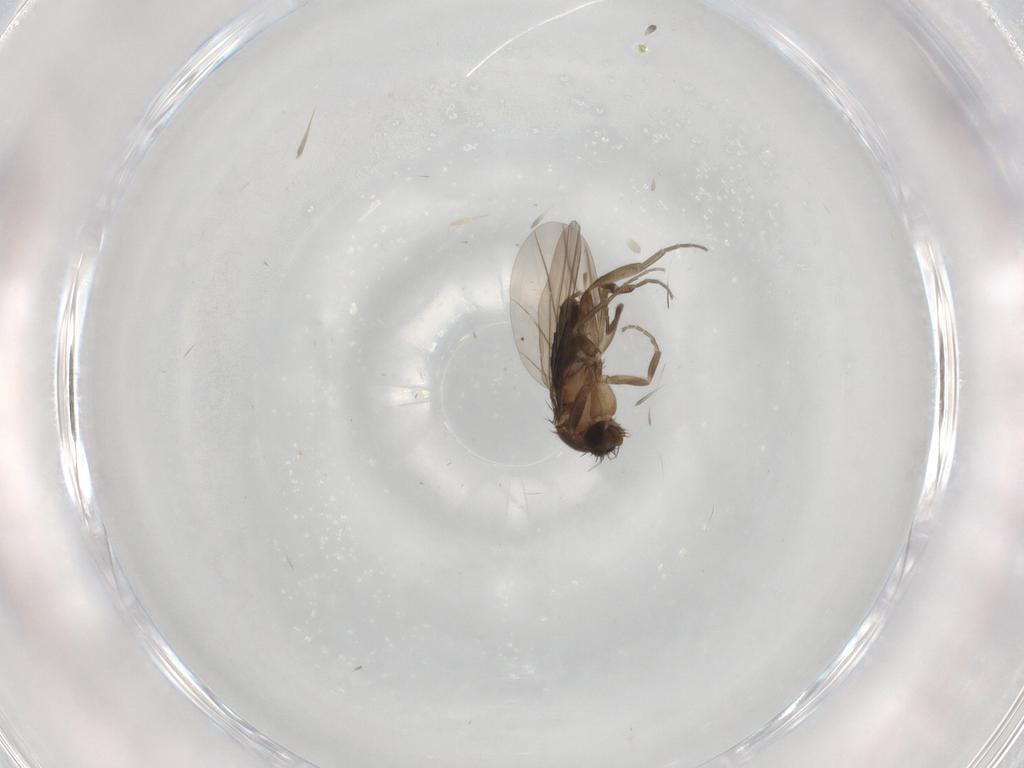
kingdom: Animalia
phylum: Arthropoda
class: Insecta
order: Diptera
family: Phoridae
